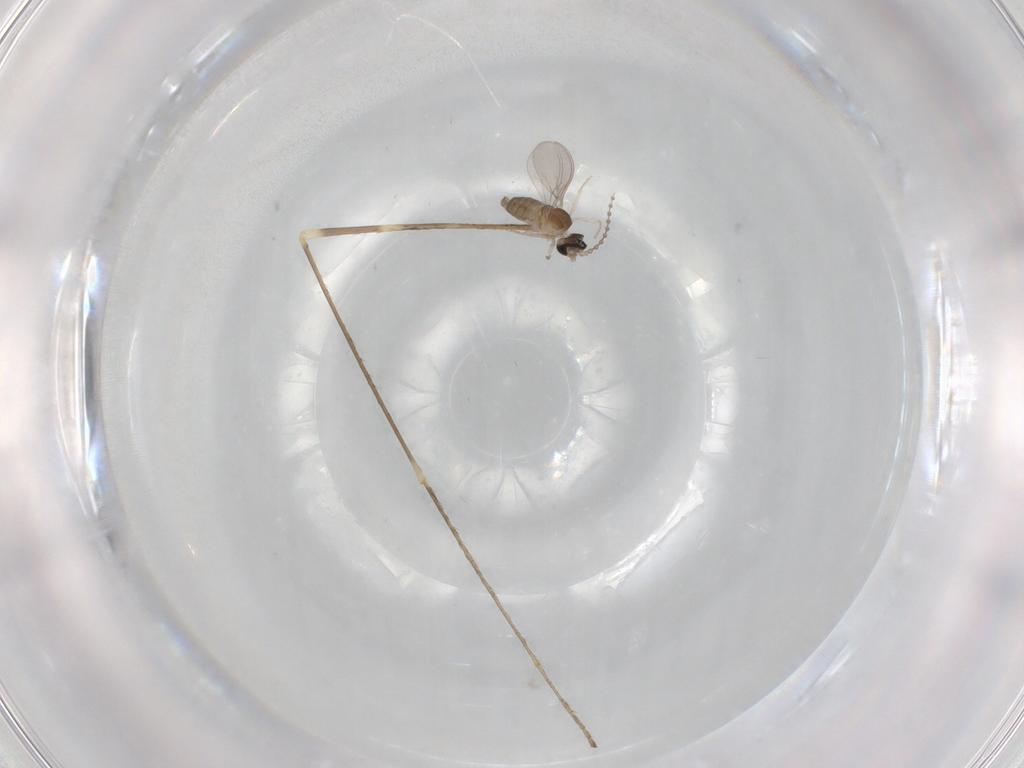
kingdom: Animalia
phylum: Arthropoda
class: Insecta
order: Diptera
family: Limoniidae
